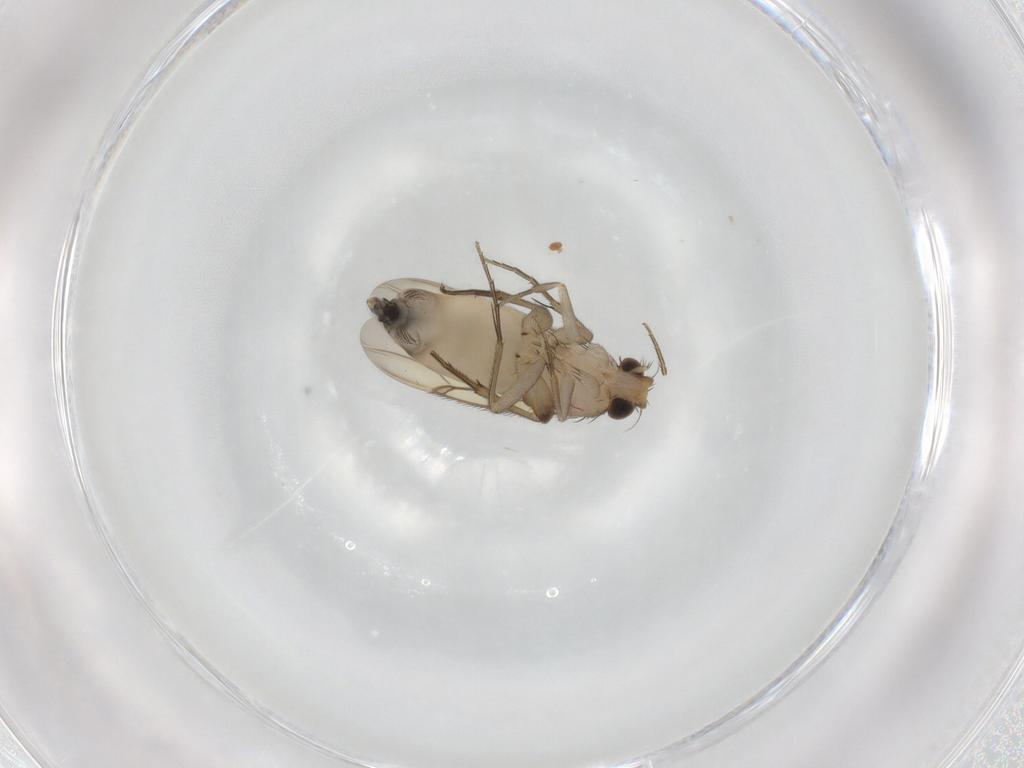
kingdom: Animalia
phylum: Arthropoda
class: Insecta
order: Diptera
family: Phoridae
